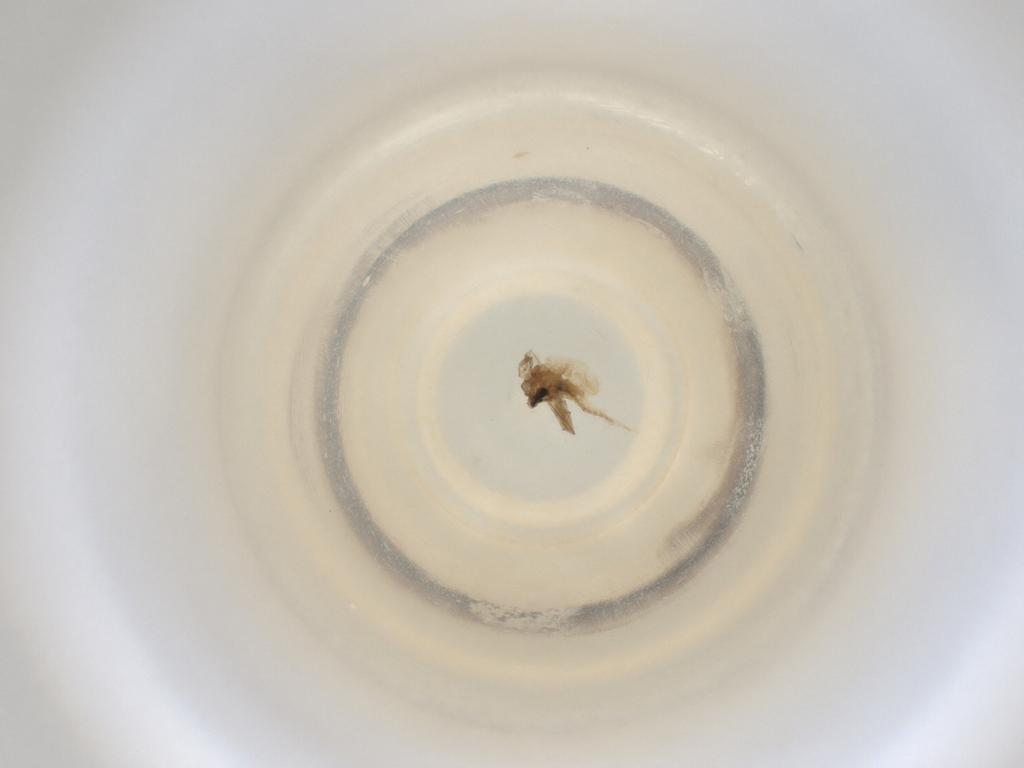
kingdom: Animalia
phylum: Arthropoda
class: Insecta
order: Diptera
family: Cecidomyiidae
